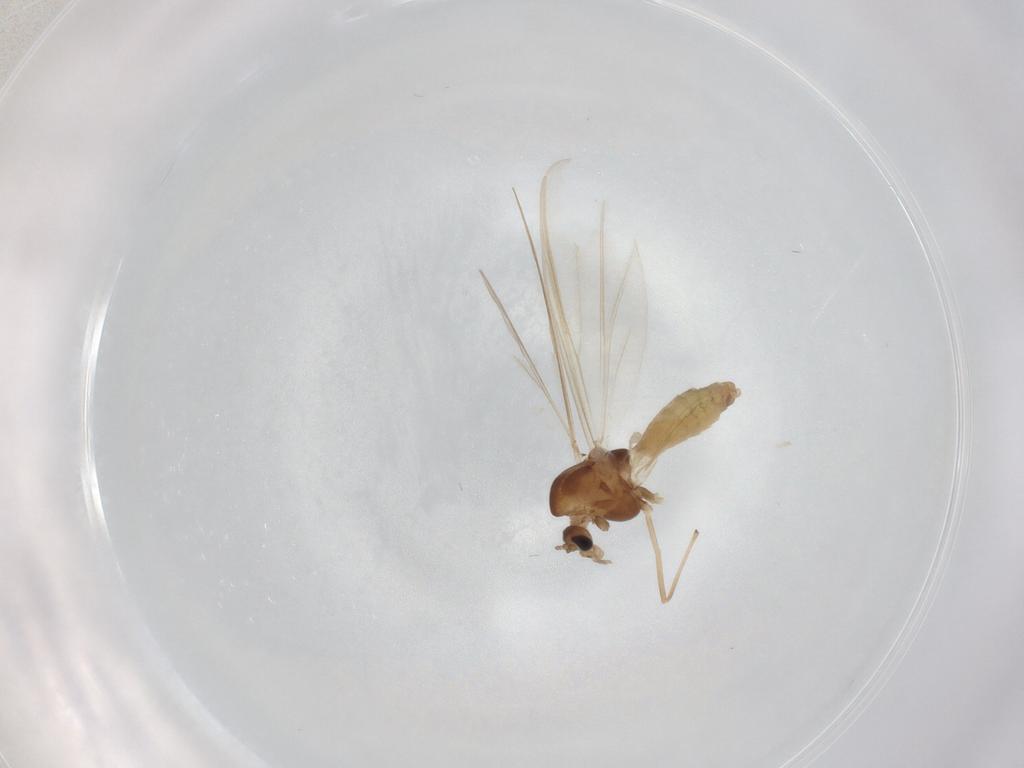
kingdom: Animalia
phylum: Arthropoda
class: Insecta
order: Diptera
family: Chironomidae
